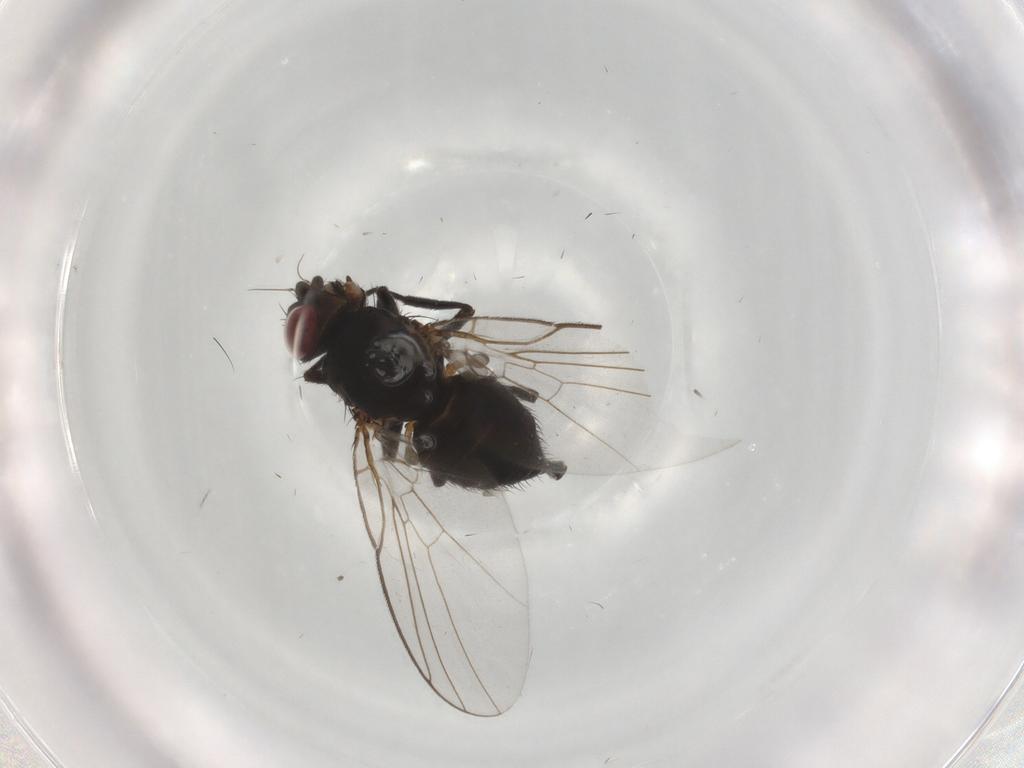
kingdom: Animalia
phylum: Arthropoda
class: Insecta
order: Diptera
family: Agromyzidae
